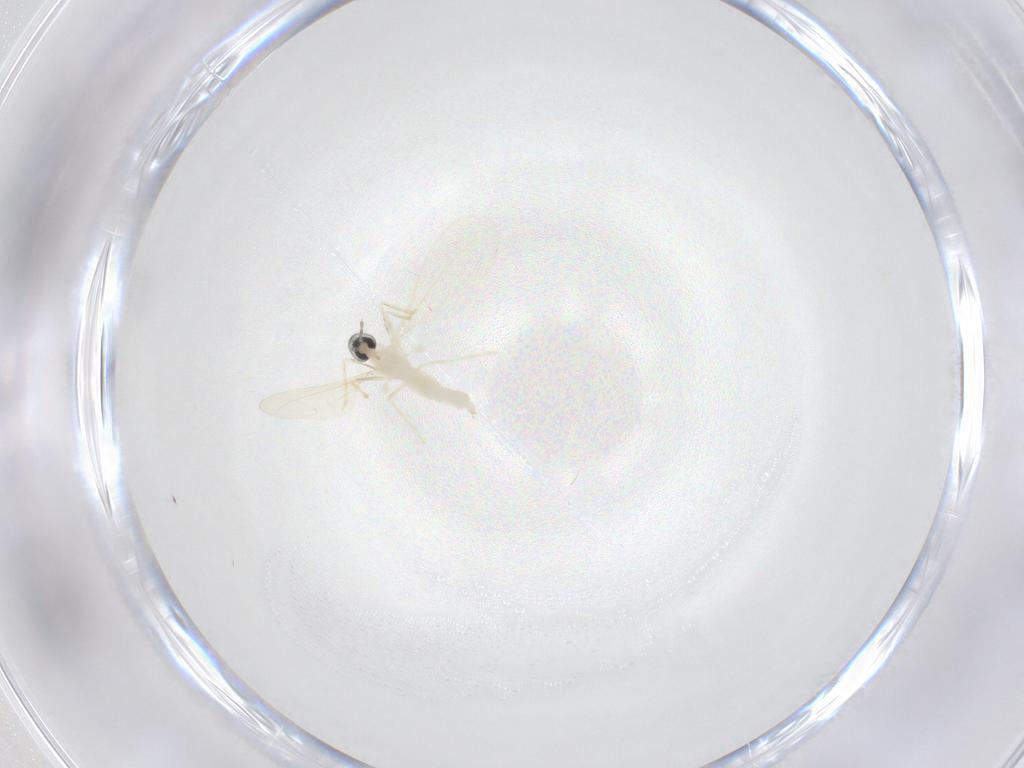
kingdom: Animalia
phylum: Arthropoda
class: Insecta
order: Diptera
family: Cecidomyiidae
